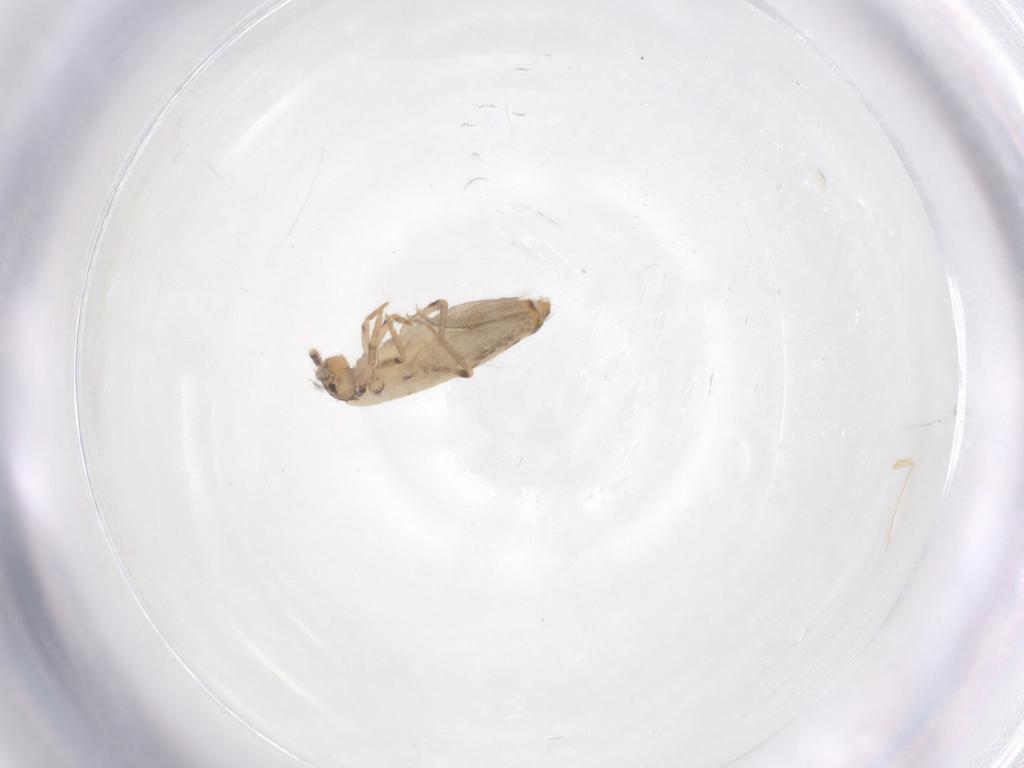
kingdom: Animalia
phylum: Arthropoda
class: Collembola
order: Entomobryomorpha
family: Entomobryidae
